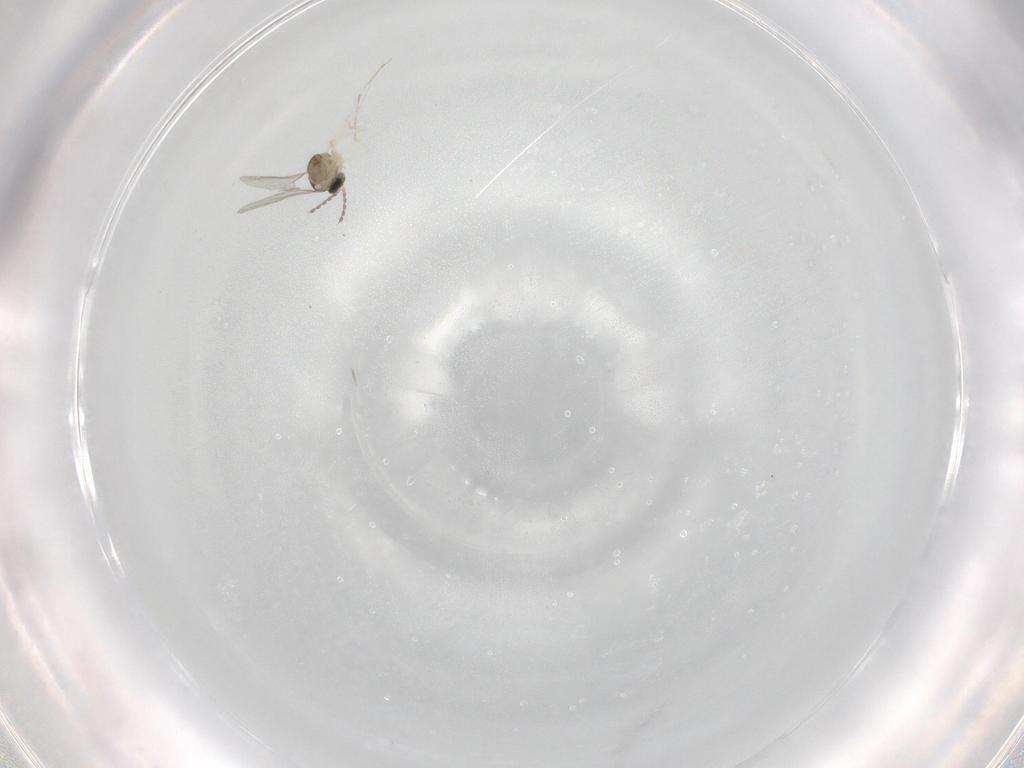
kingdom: Animalia
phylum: Arthropoda
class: Insecta
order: Diptera
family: Cecidomyiidae
